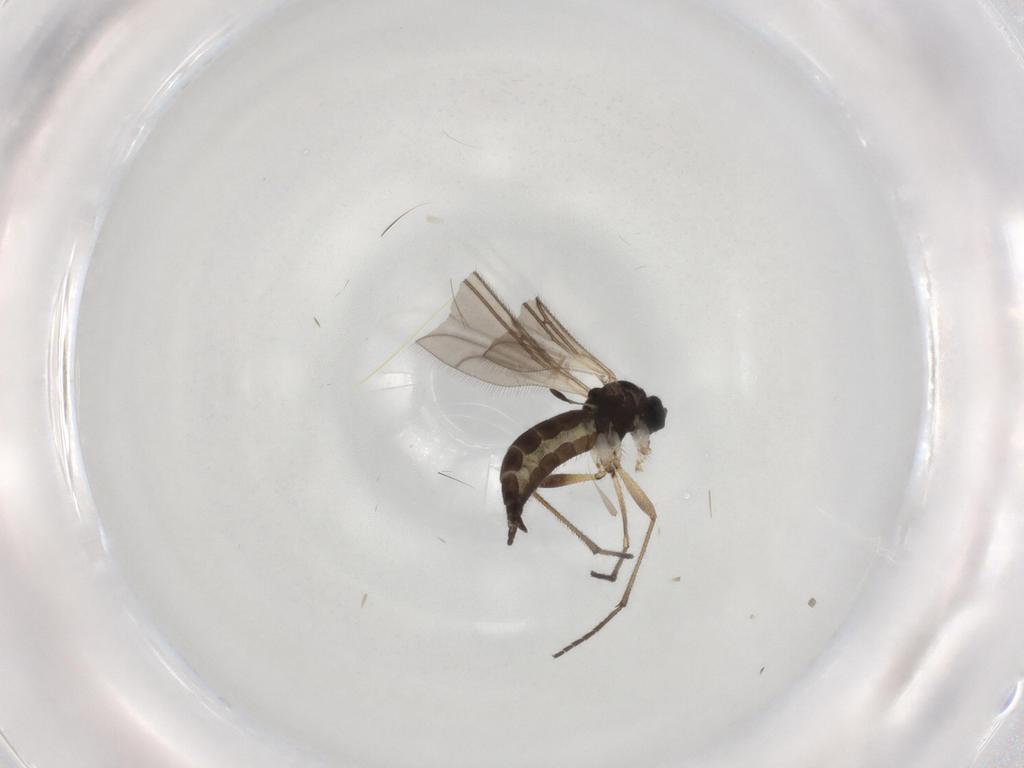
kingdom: Animalia
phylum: Arthropoda
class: Insecta
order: Diptera
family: Sciaridae
